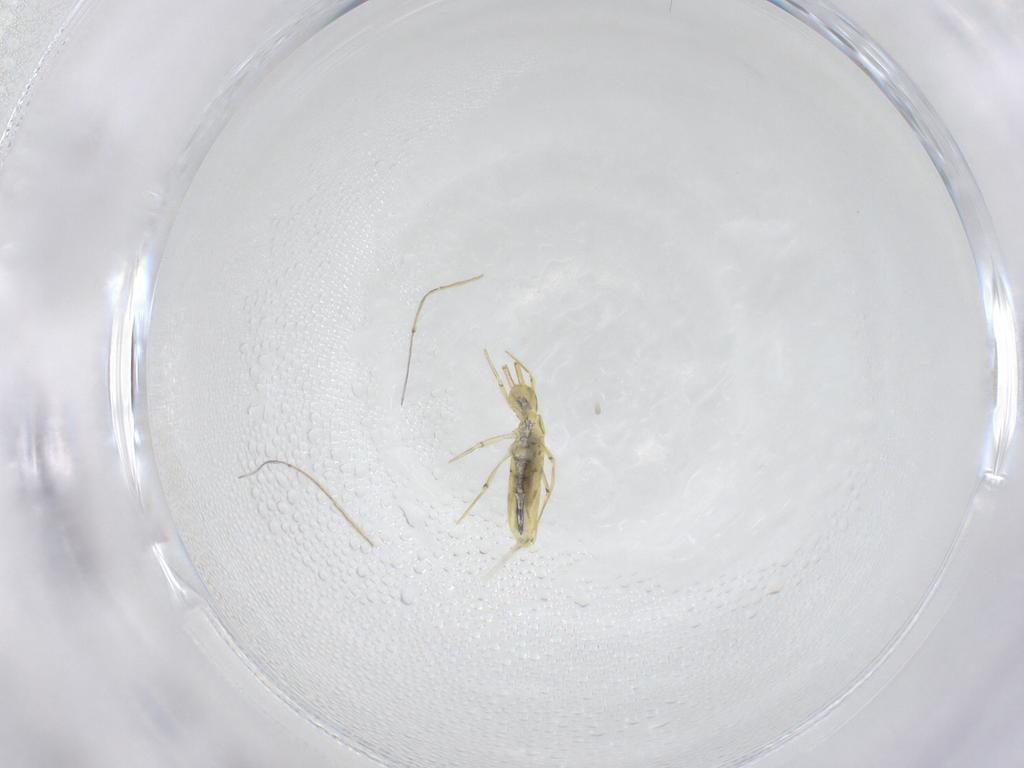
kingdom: Animalia
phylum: Arthropoda
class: Collembola
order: Entomobryomorpha
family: Entomobryidae
